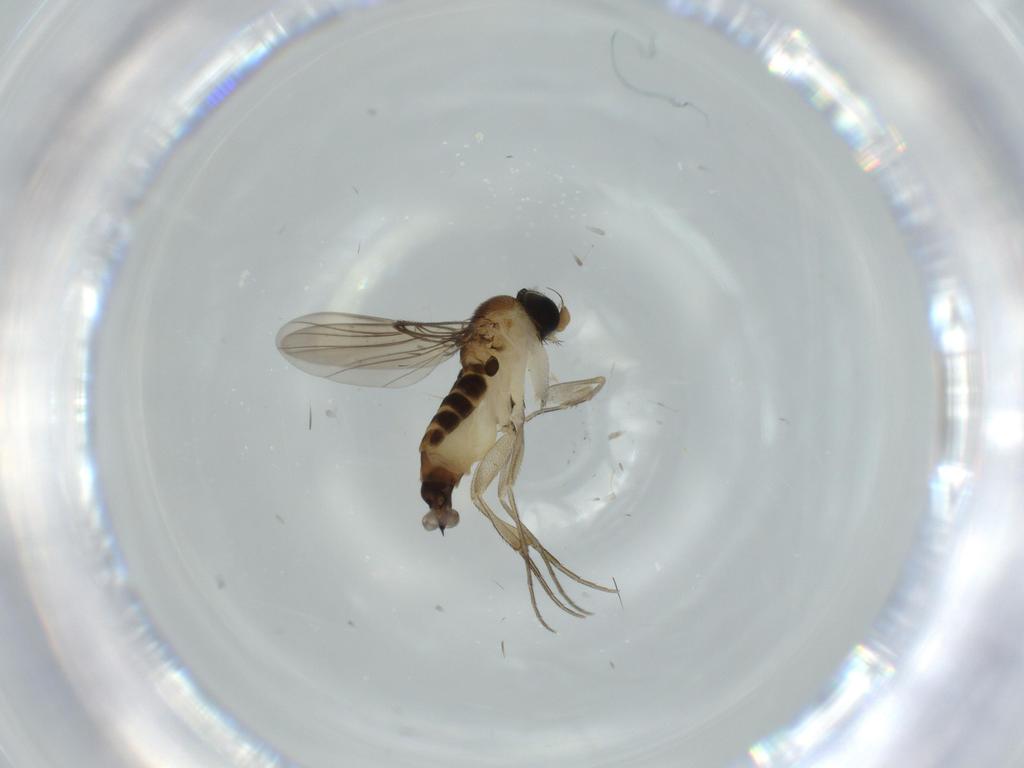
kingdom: Animalia
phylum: Arthropoda
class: Insecta
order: Diptera
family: Phoridae
